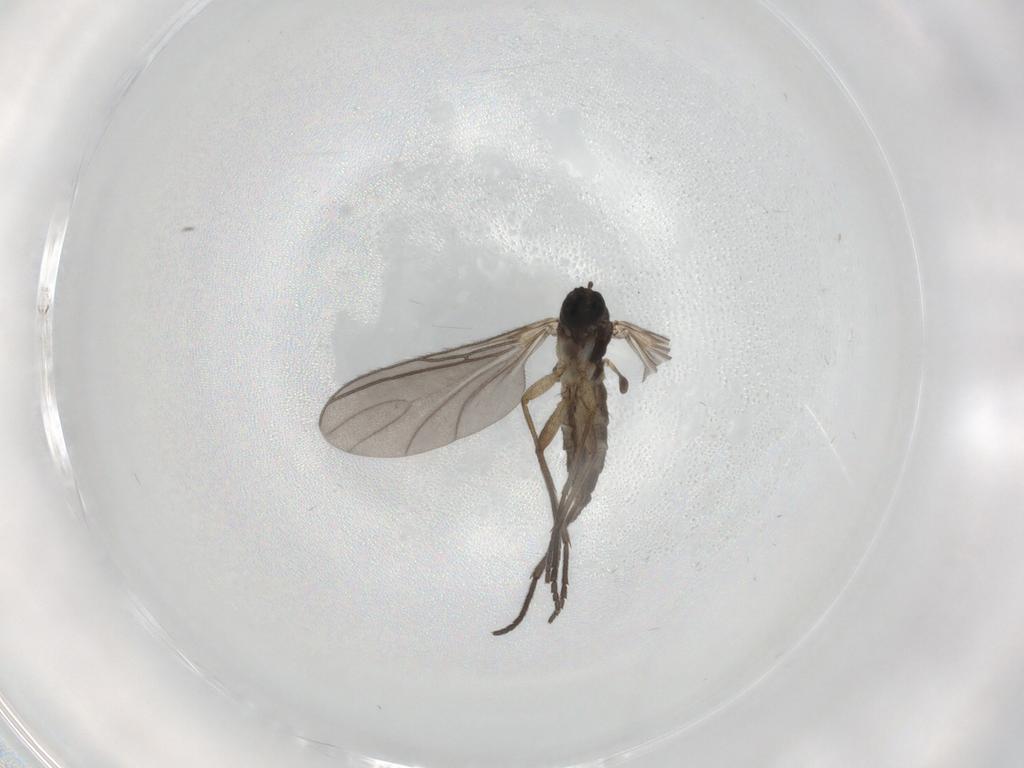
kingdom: Animalia
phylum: Arthropoda
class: Insecta
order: Diptera
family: Sciaridae
